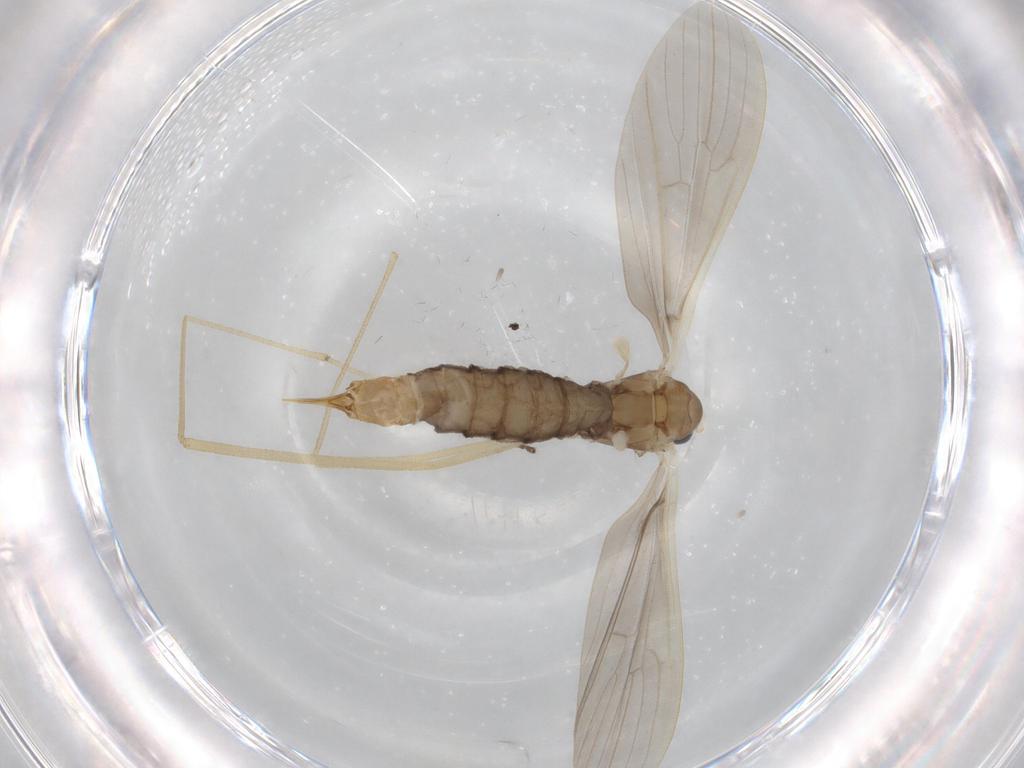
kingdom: Animalia
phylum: Arthropoda
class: Insecta
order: Diptera
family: Limoniidae
